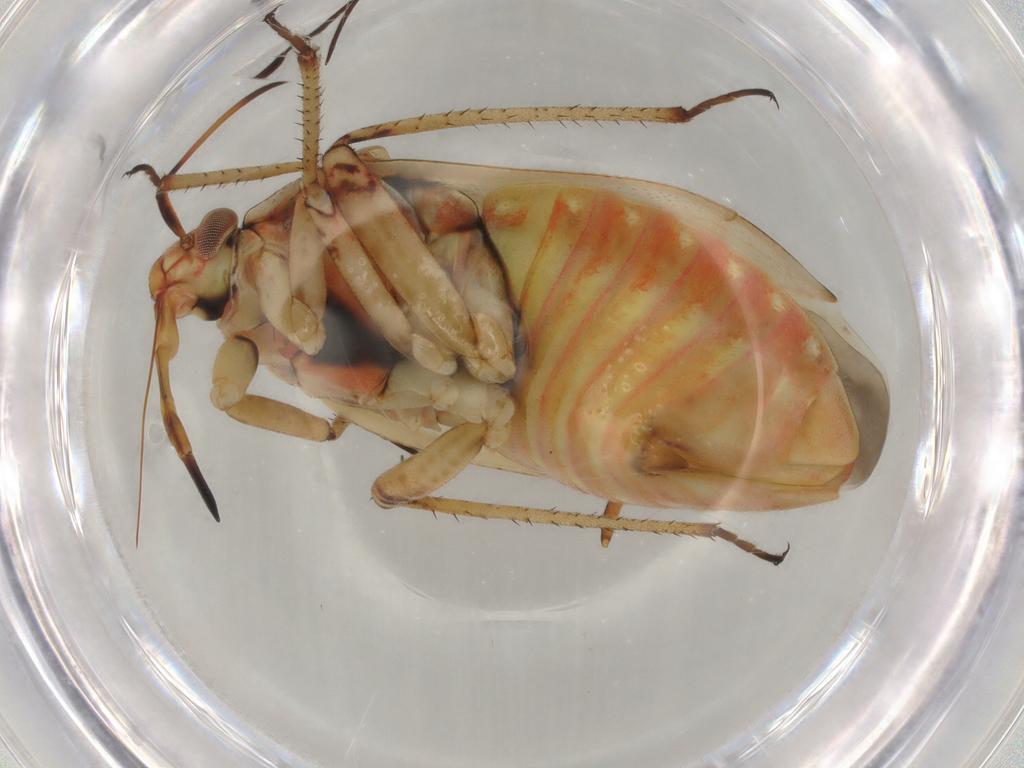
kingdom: Animalia
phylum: Arthropoda
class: Insecta
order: Hemiptera
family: Miridae
